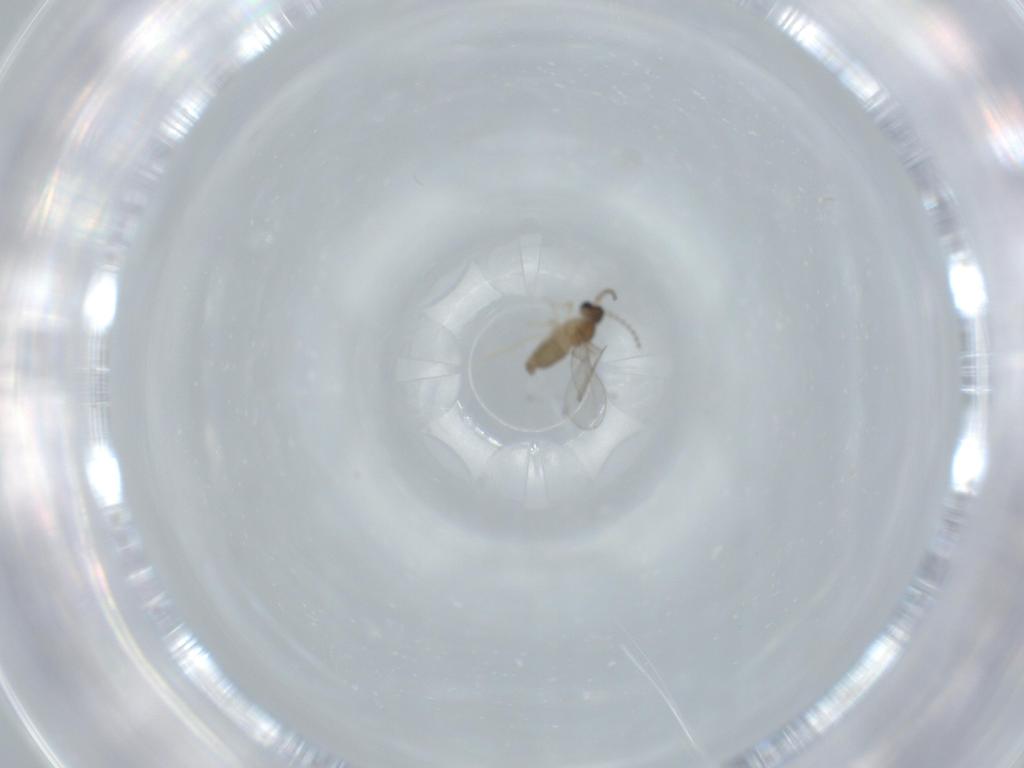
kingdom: Animalia
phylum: Arthropoda
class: Insecta
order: Diptera
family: Cecidomyiidae
